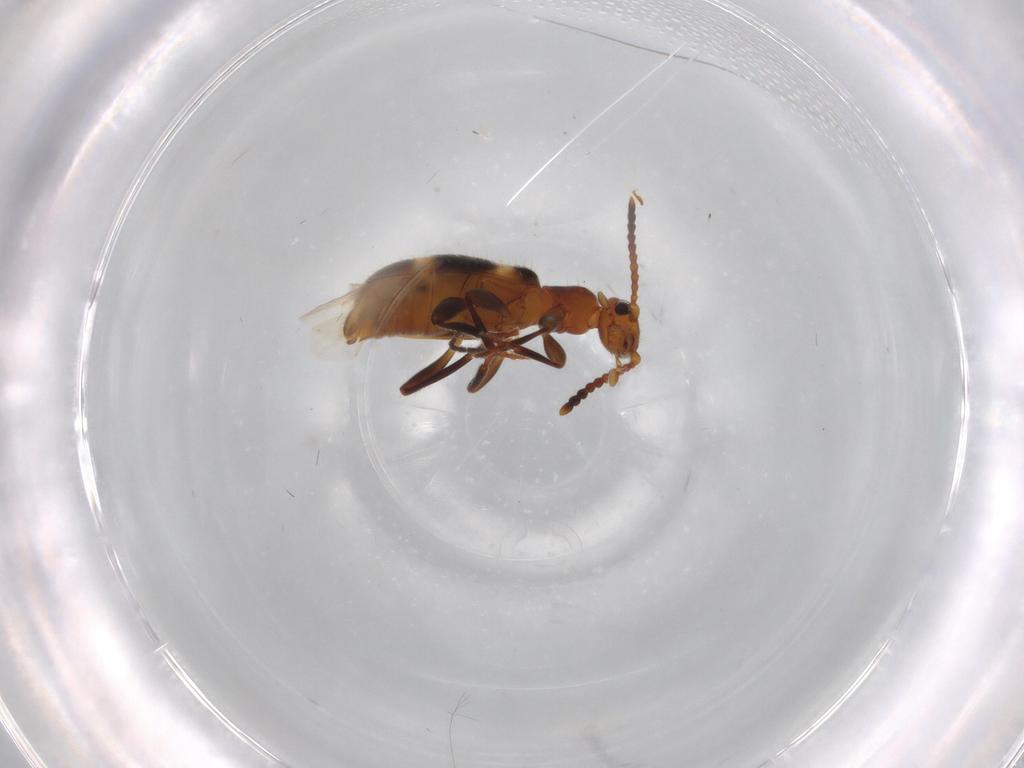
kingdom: Animalia
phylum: Arthropoda
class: Insecta
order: Coleoptera
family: Anthicidae
